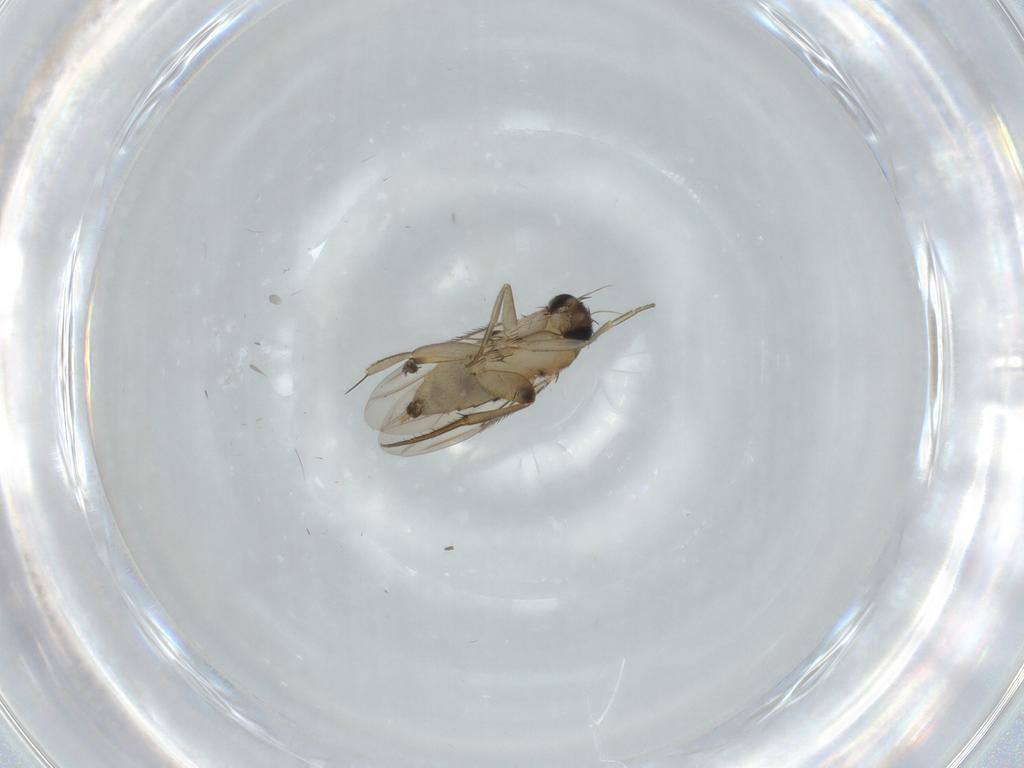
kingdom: Animalia
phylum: Arthropoda
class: Insecta
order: Diptera
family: Phoridae
